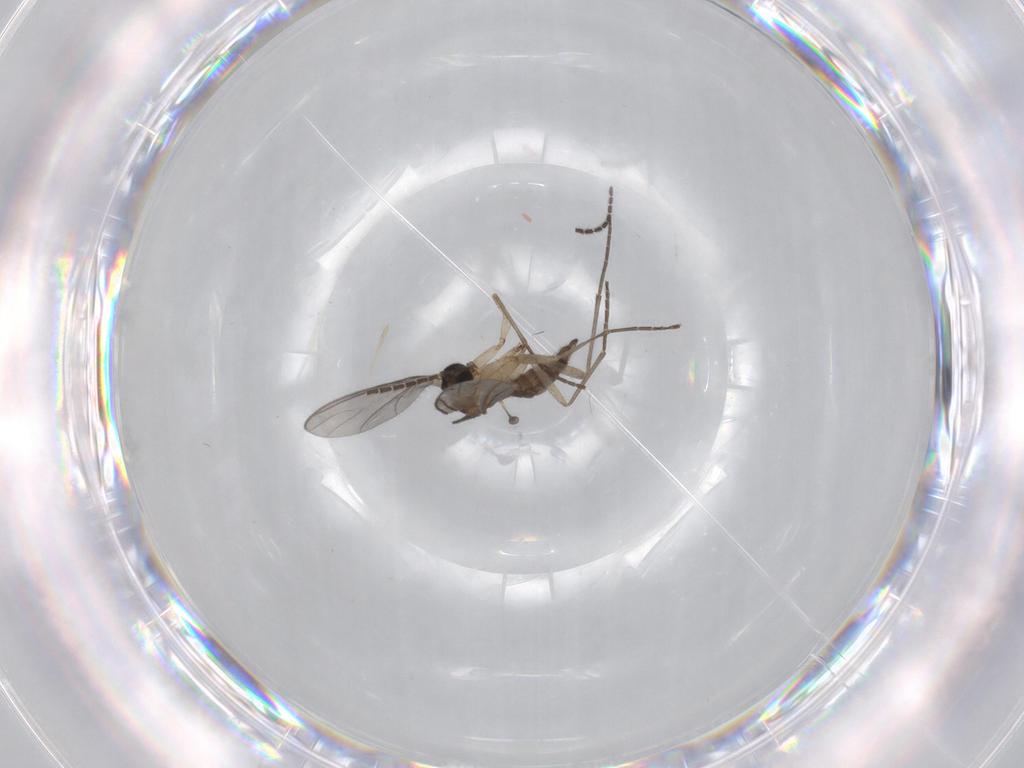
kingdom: Animalia
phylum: Arthropoda
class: Insecta
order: Diptera
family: Sciaridae
